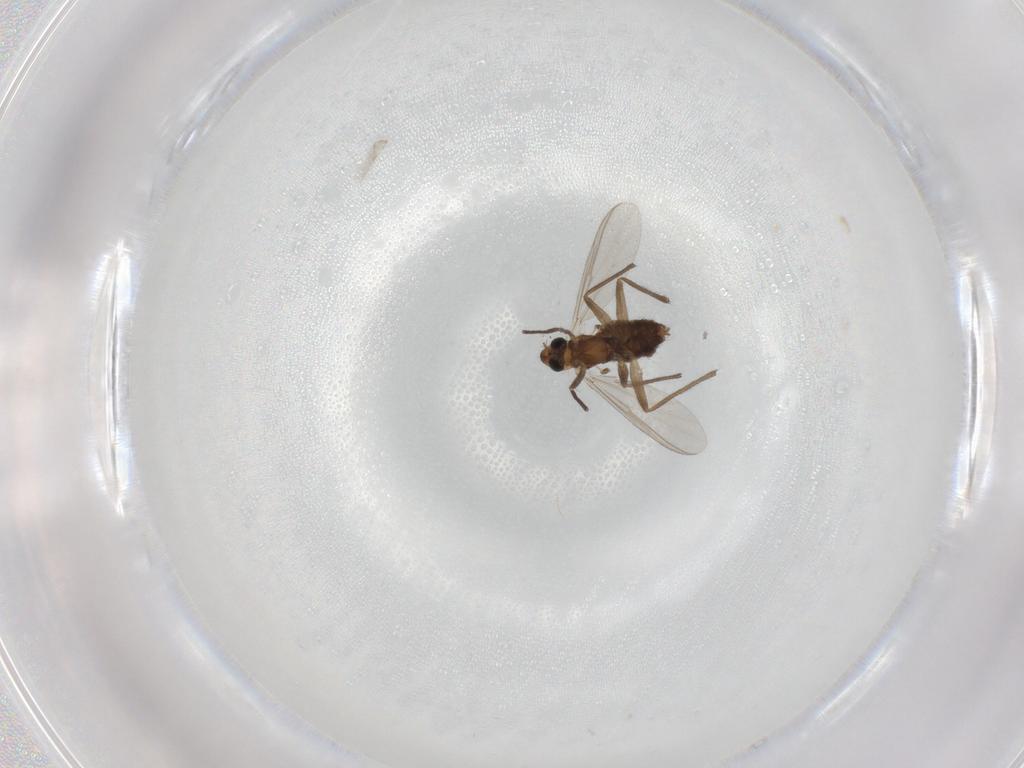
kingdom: Animalia
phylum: Arthropoda
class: Insecta
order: Diptera
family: Chironomidae
